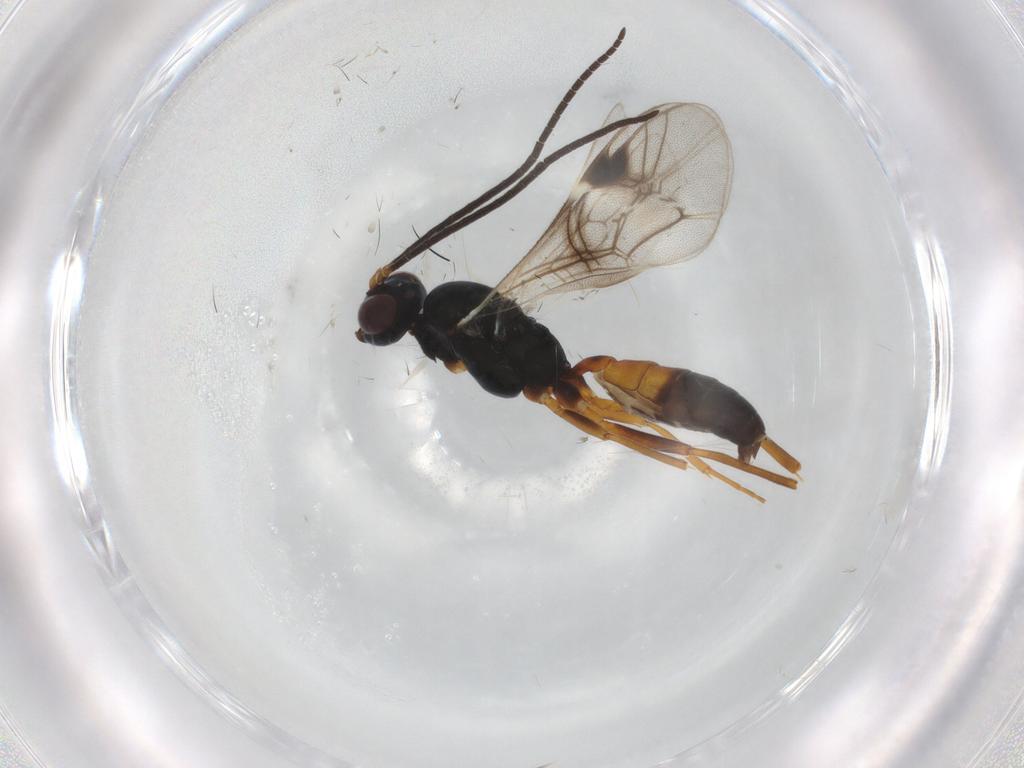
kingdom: Animalia
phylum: Arthropoda
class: Insecta
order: Hymenoptera
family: Ichneumonidae
